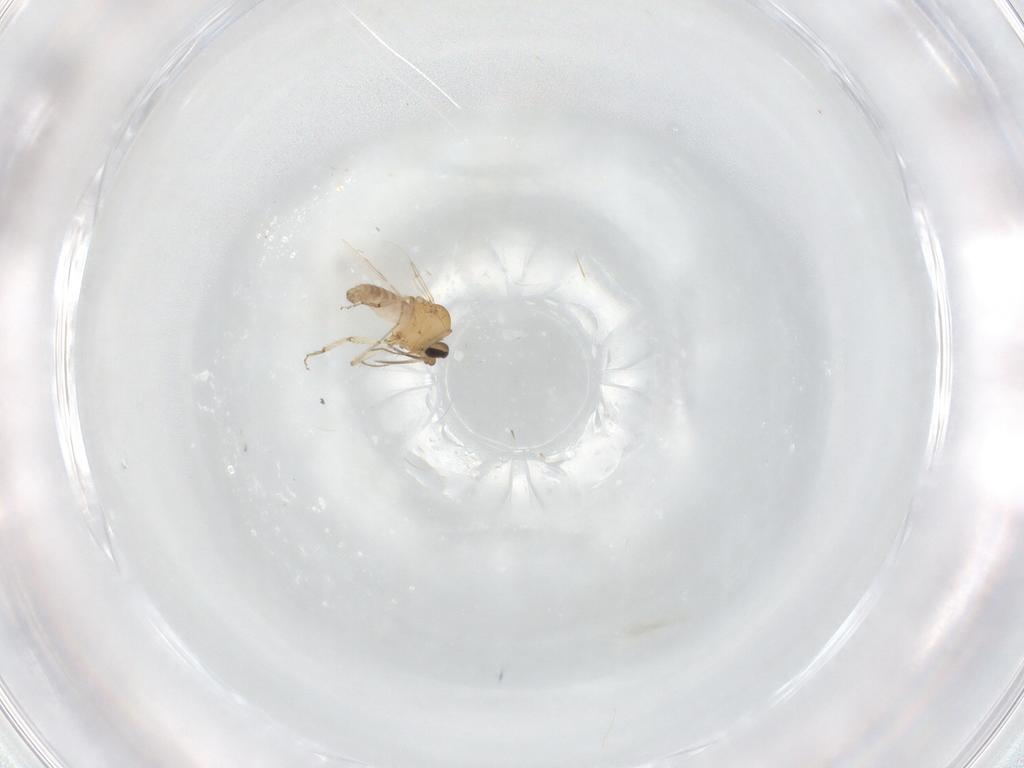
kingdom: Animalia
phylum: Arthropoda
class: Insecta
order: Diptera
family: Ceratopogonidae
